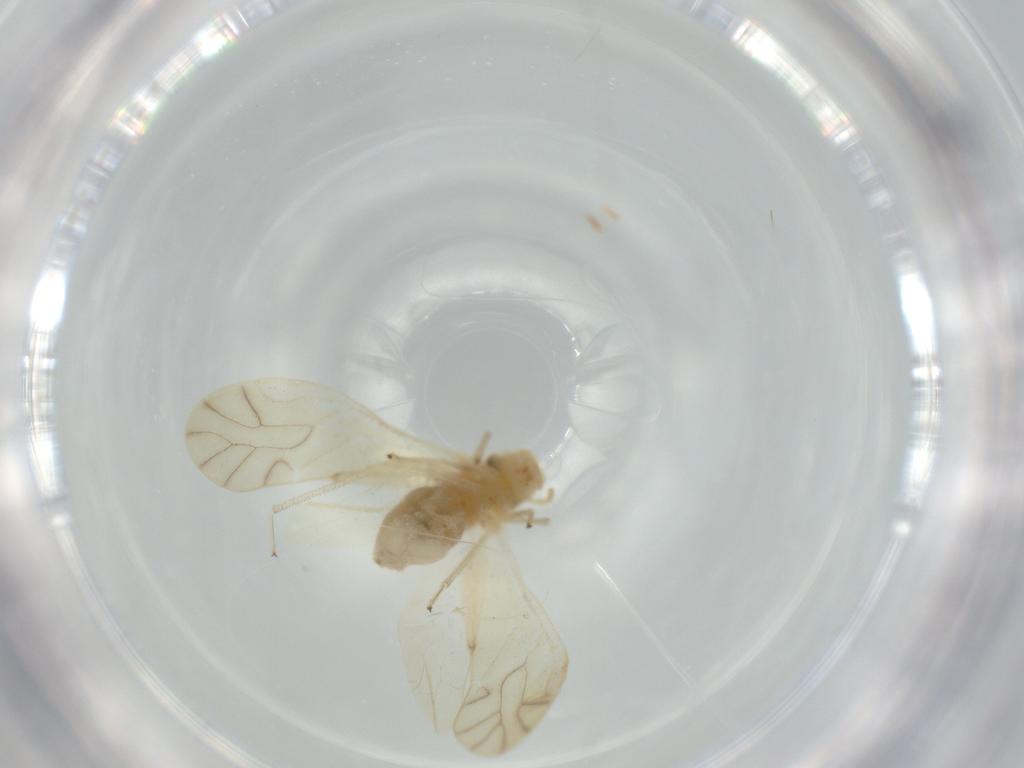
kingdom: Animalia
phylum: Arthropoda
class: Insecta
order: Psocodea
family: Caeciliusidae
